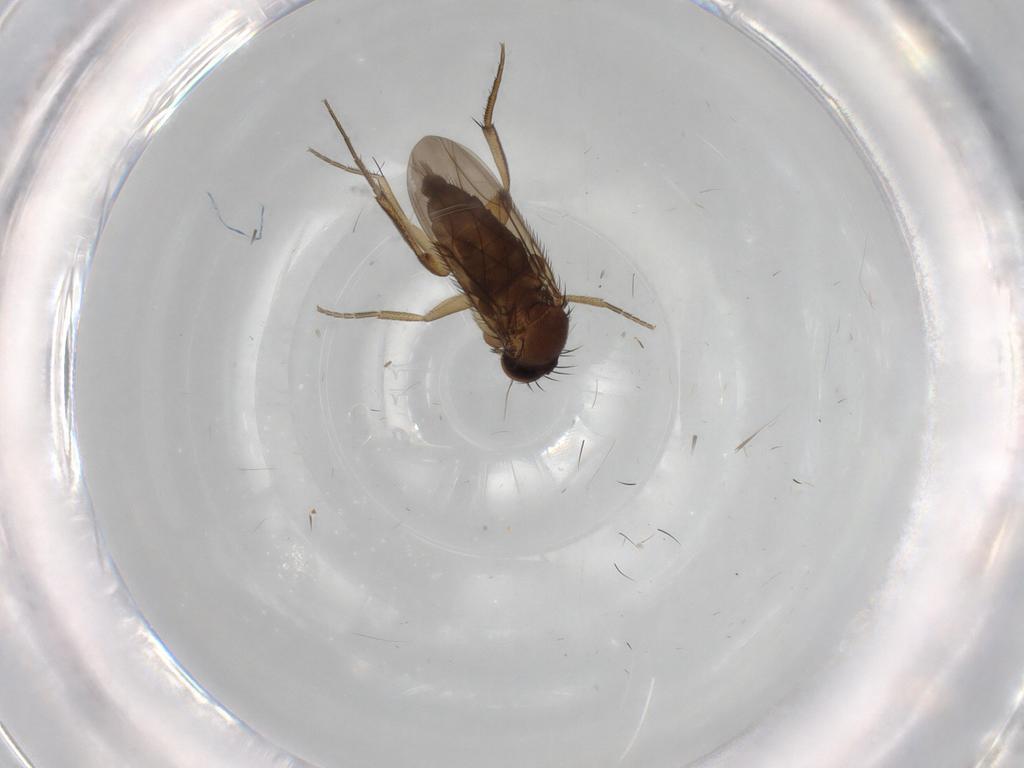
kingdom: Animalia
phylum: Arthropoda
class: Insecta
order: Diptera
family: Phoridae
